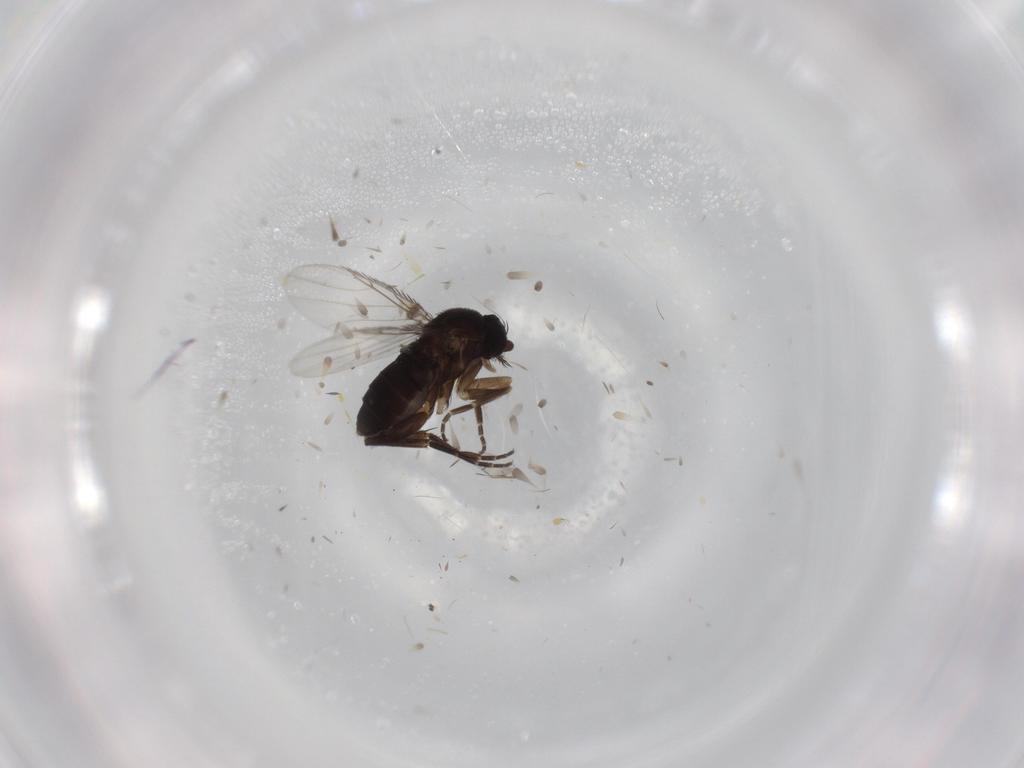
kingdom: Animalia
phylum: Arthropoda
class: Insecta
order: Diptera
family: Phoridae
